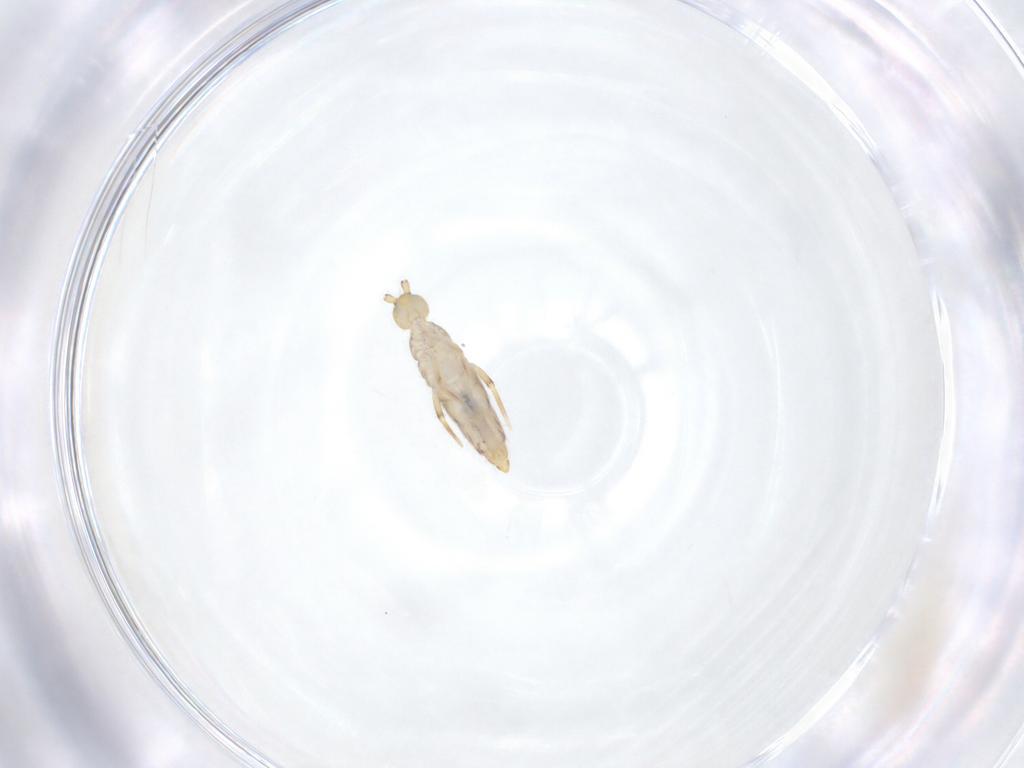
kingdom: Animalia
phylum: Arthropoda
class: Collembola
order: Entomobryomorpha
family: Entomobryidae
